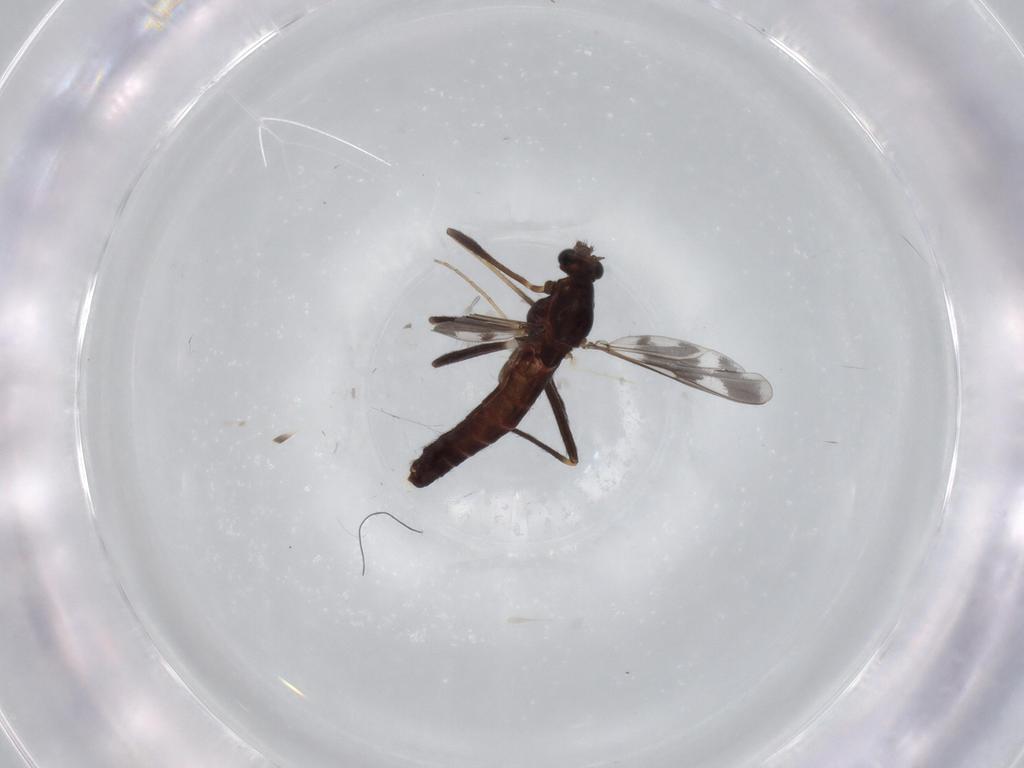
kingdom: Animalia
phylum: Arthropoda
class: Insecta
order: Diptera
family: Chironomidae
